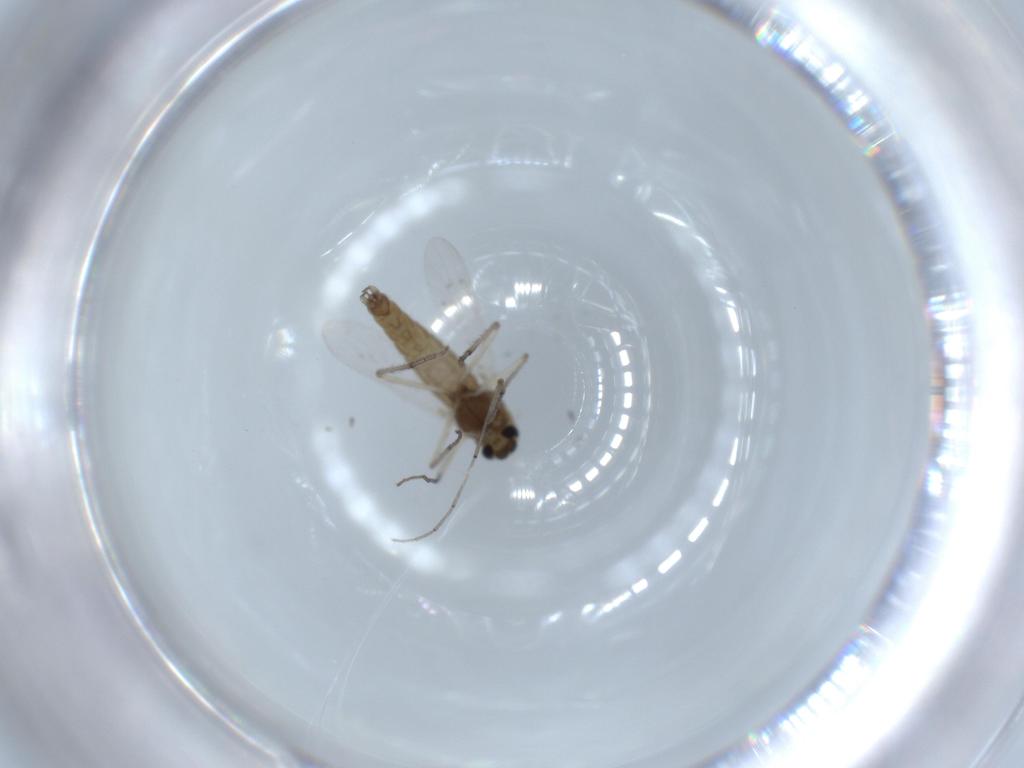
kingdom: Animalia
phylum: Arthropoda
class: Insecta
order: Diptera
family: Chironomidae
